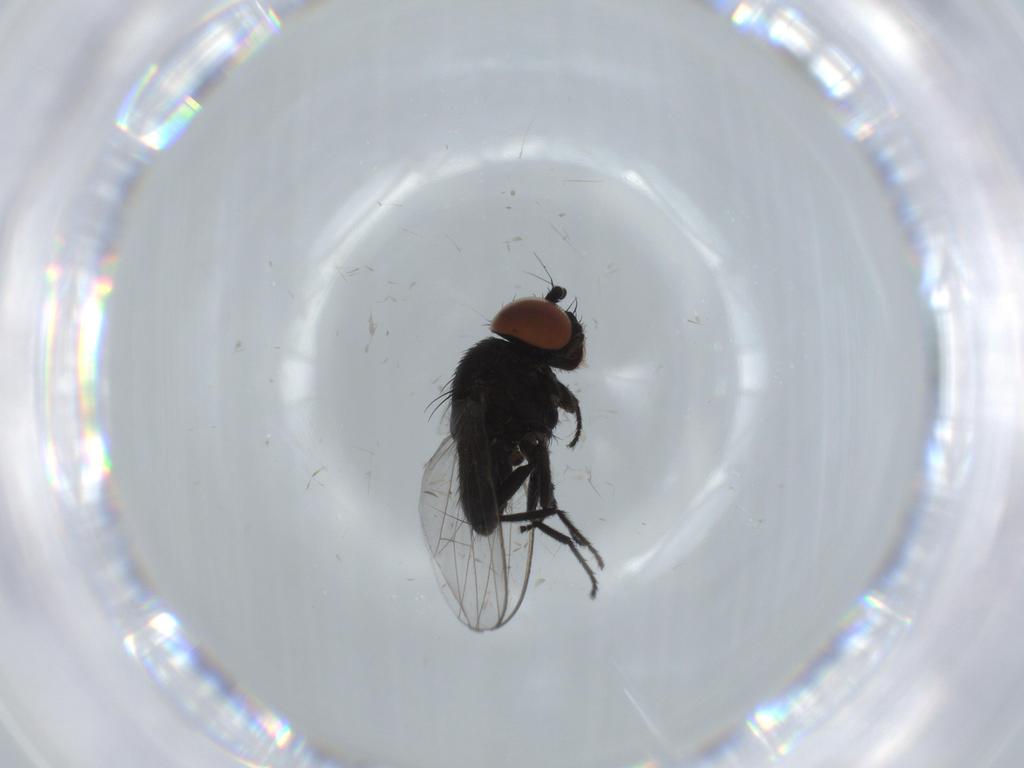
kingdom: Animalia
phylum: Arthropoda
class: Insecta
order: Diptera
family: Milichiidae
